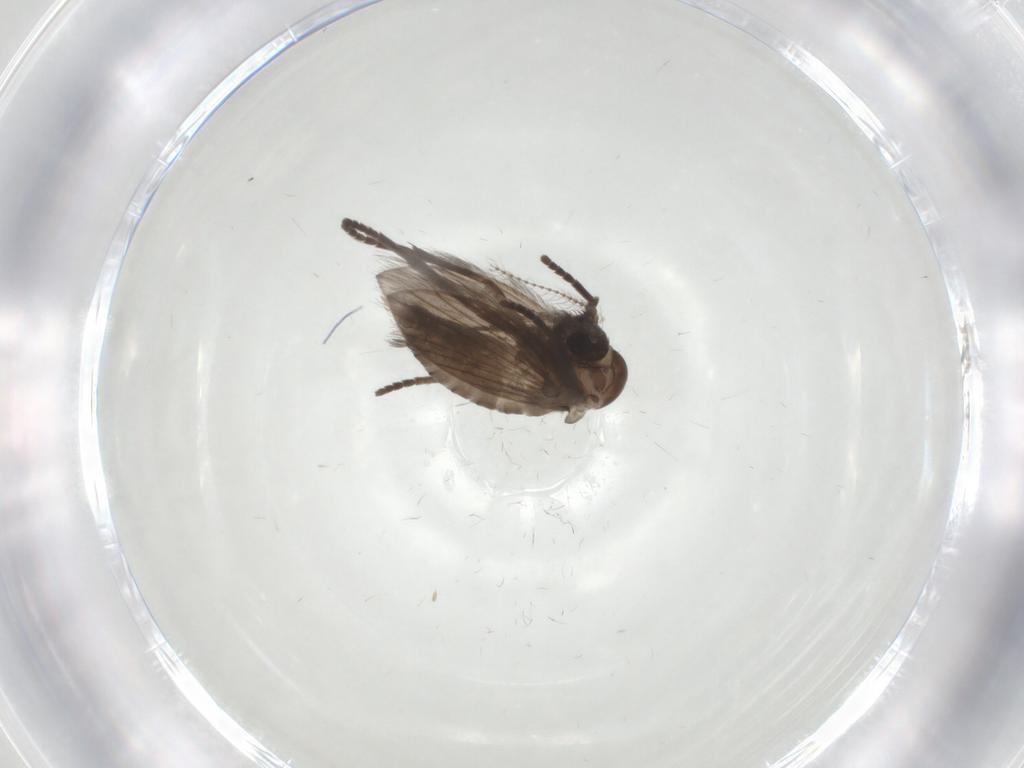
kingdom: Animalia
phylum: Arthropoda
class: Insecta
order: Diptera
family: Psychodidae
